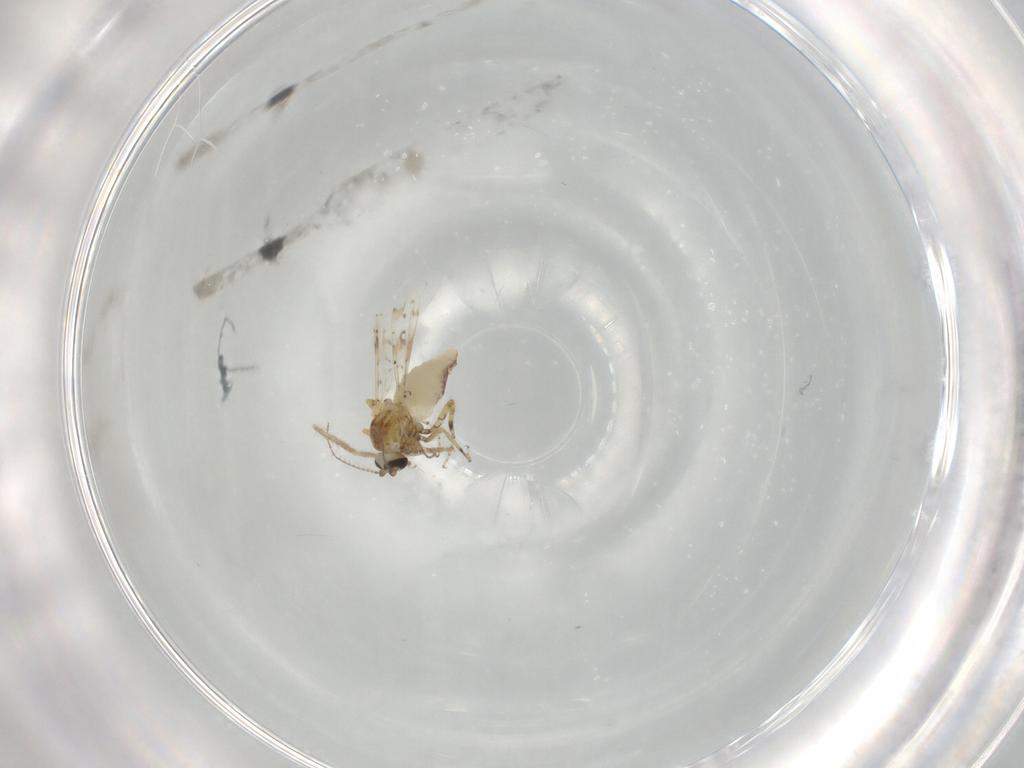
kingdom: Animalia
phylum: Arthropoda
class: Insecta
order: Diptera
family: Ceratopogonidae
